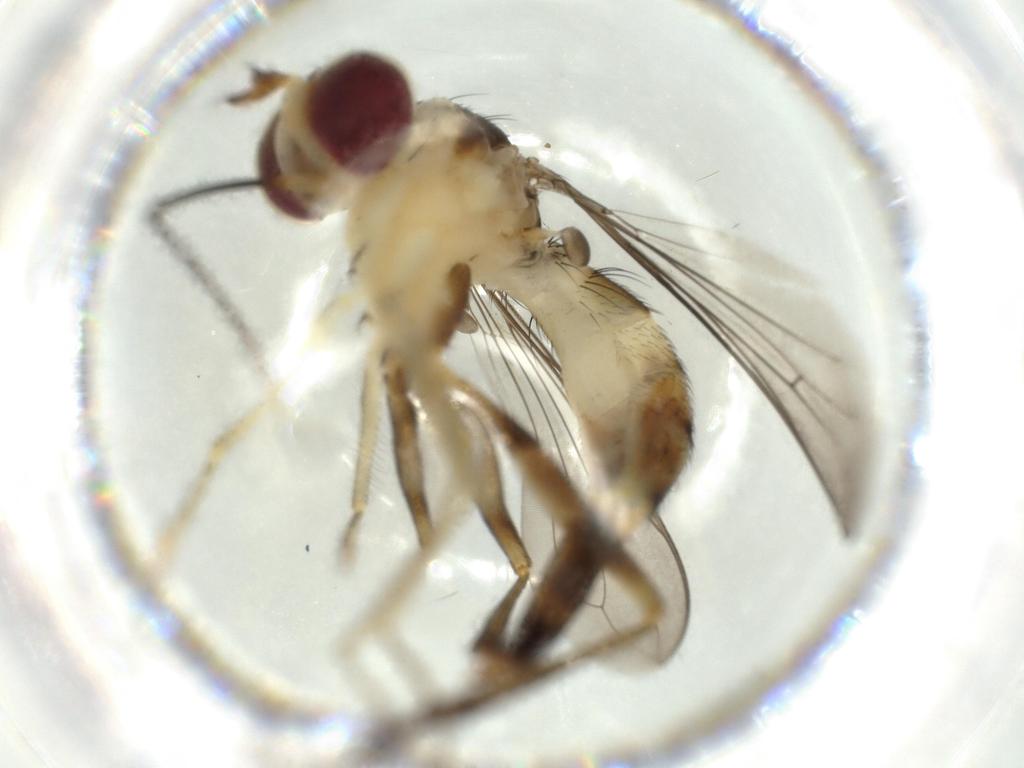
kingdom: Animalia
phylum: Arthropoda
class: Insecta
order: Diptera
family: Conopidae
